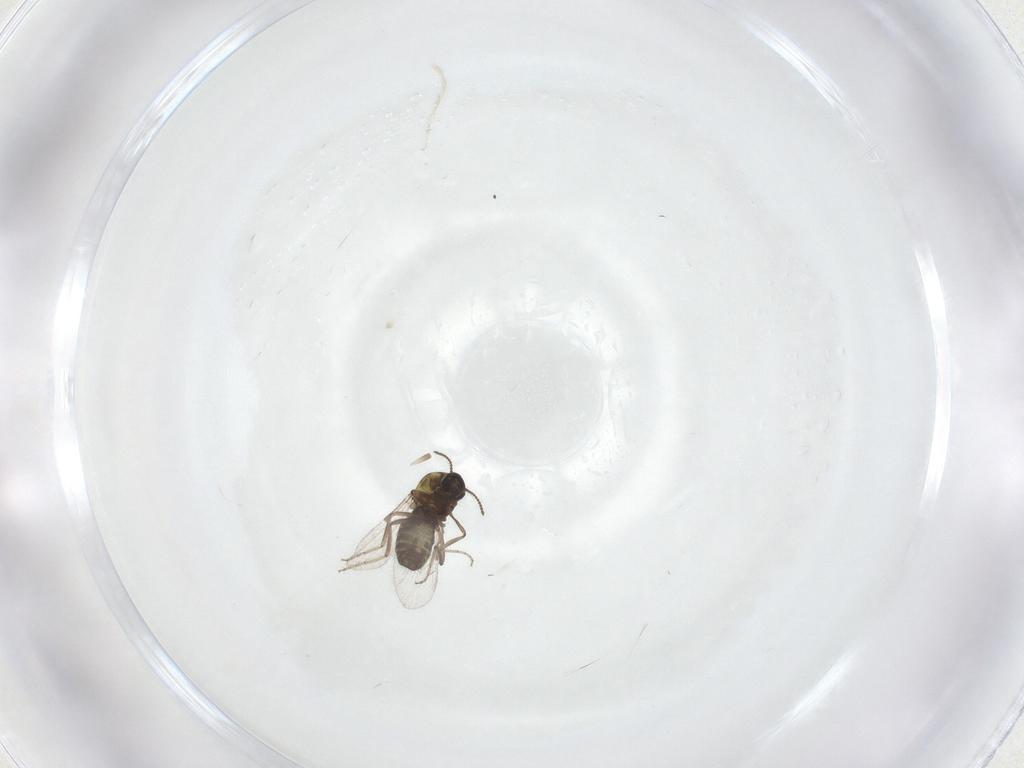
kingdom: Animalia
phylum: Arthropoda
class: Insecta
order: Diptera
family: Ceratopogonidae
